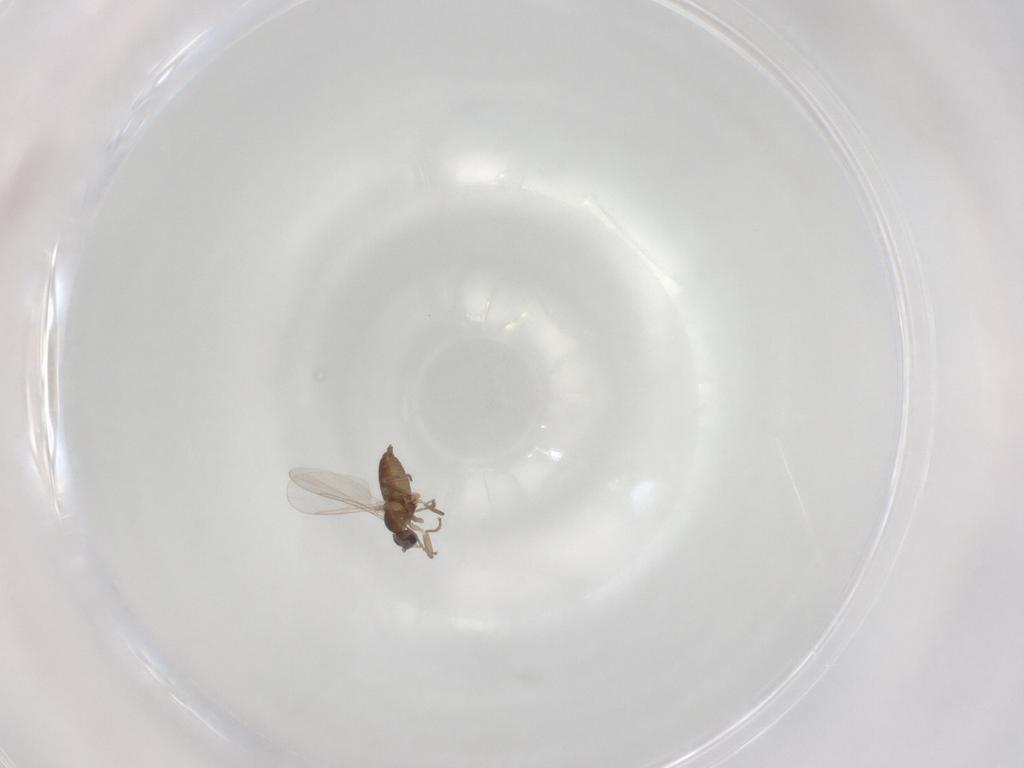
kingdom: Animalia
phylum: Arthropoda
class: Insecta
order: Diptera
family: Cecidomyiidae
